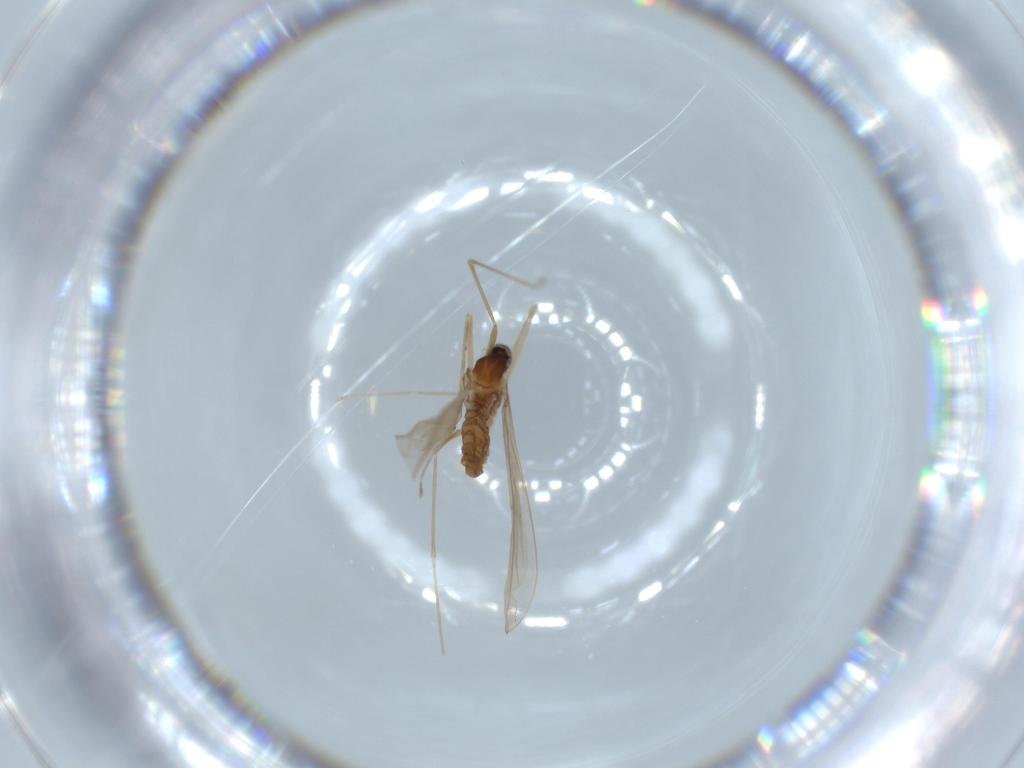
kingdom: Animalia
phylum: Arthropoda
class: Insecta
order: Diptera
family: Cecidomyiidae
